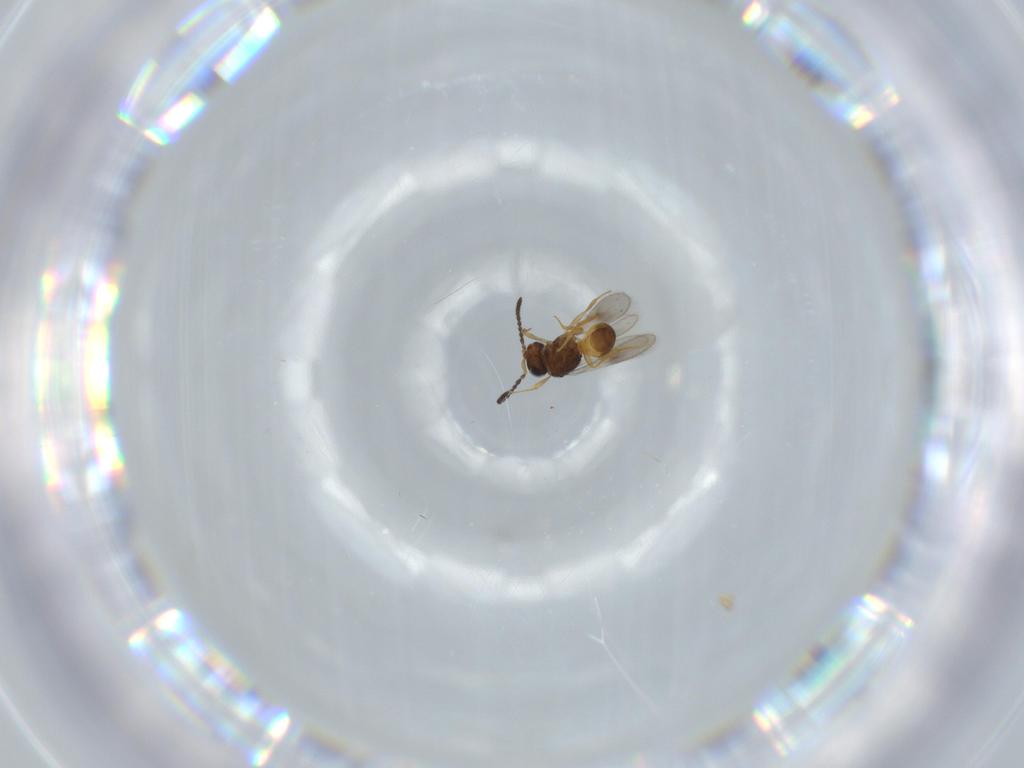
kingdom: Animalia
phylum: Arthropoda
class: Insecta
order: Hymenoptera
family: Scelionidae
